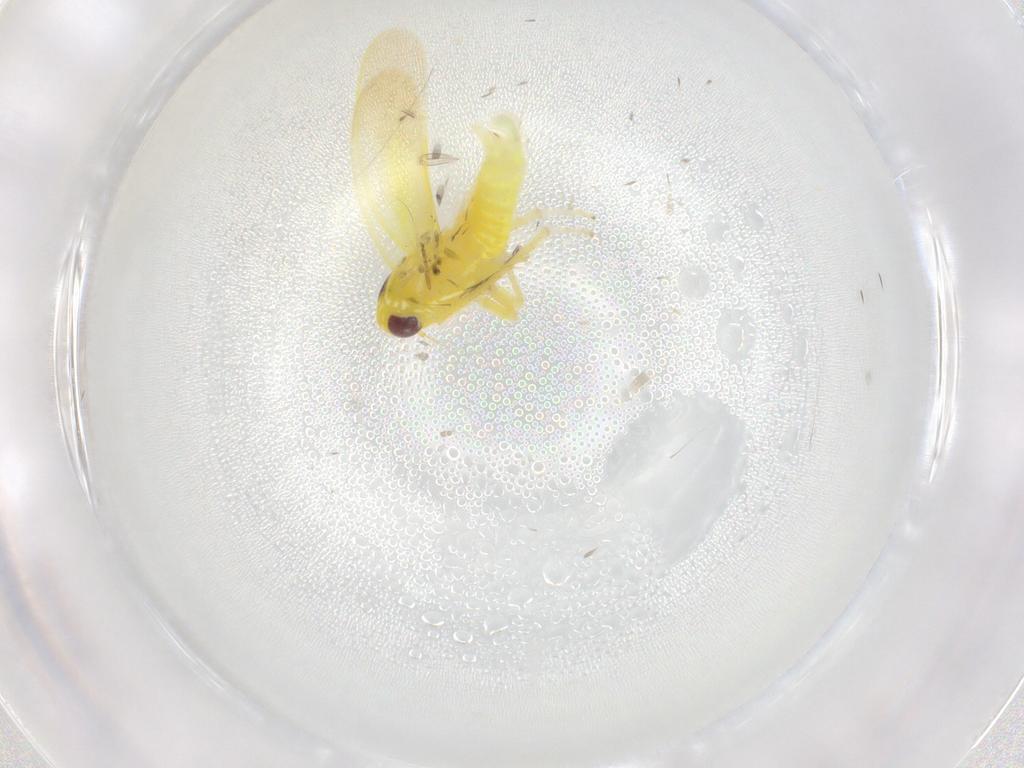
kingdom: Animalia
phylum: Arthropoda
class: Insecta
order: Hemiptera
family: Cicadellidae
